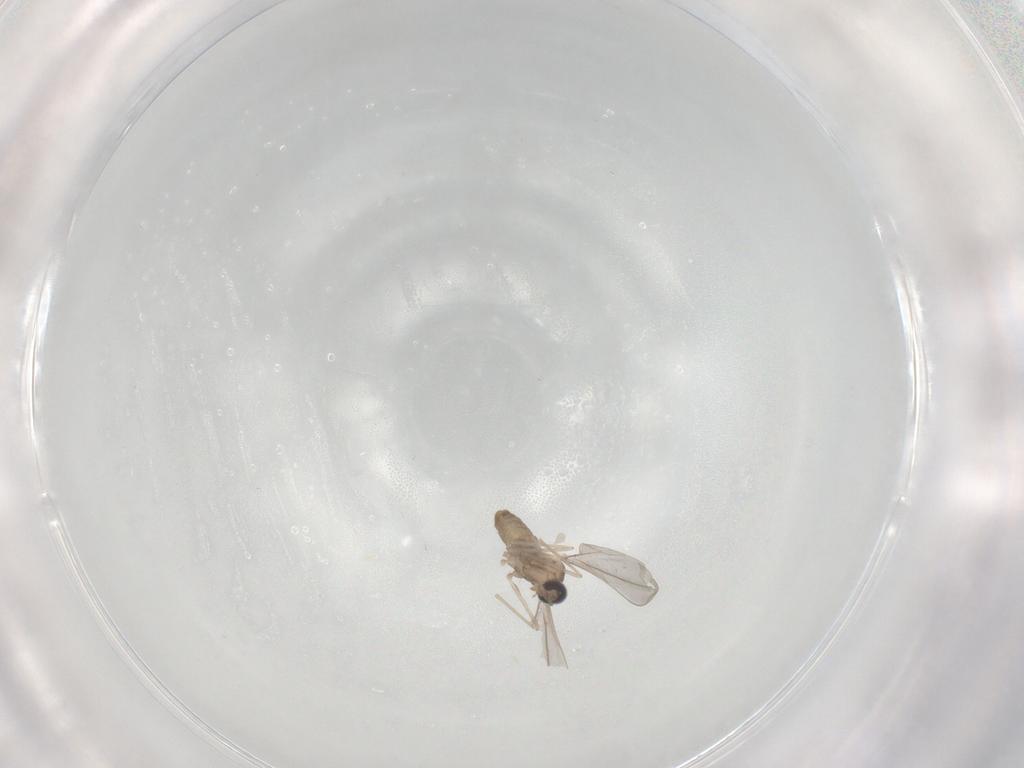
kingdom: Animalia
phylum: Arthropoda
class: Insecta
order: Diptera
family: Cecidomyiidae
